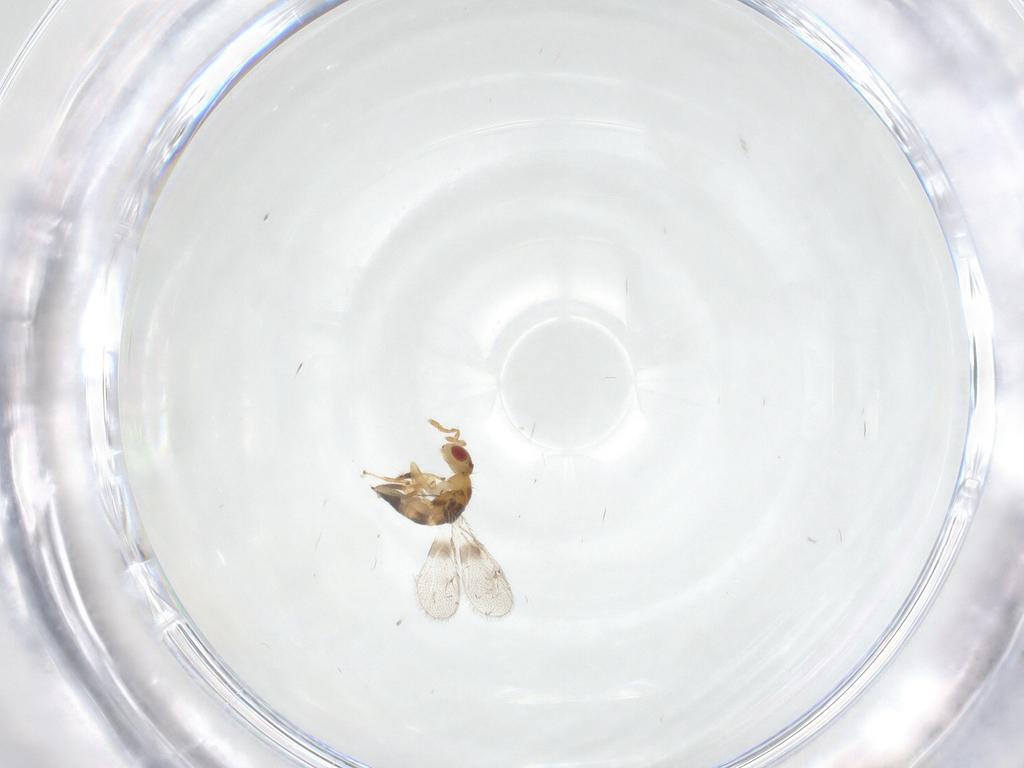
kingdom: Animalia
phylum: Arthropoda
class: Insecta
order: Hymenoptera
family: Torymidae
